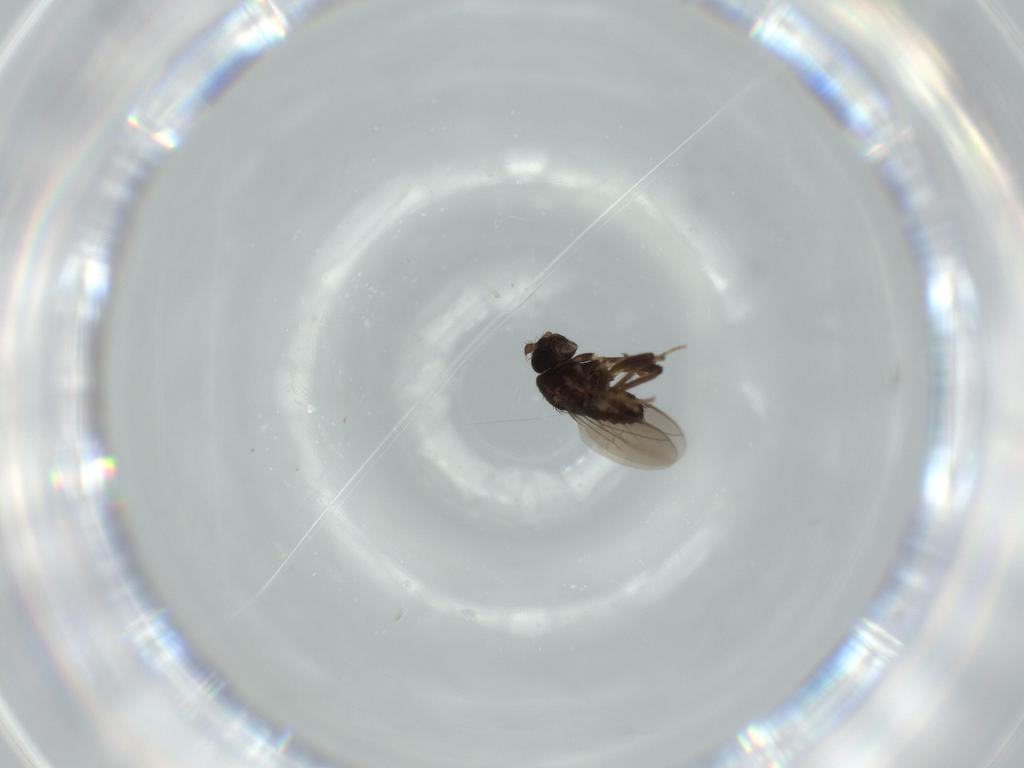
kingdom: Animalia
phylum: Arthropoda
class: Insecta
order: Diptera
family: Sphaeroceridae
